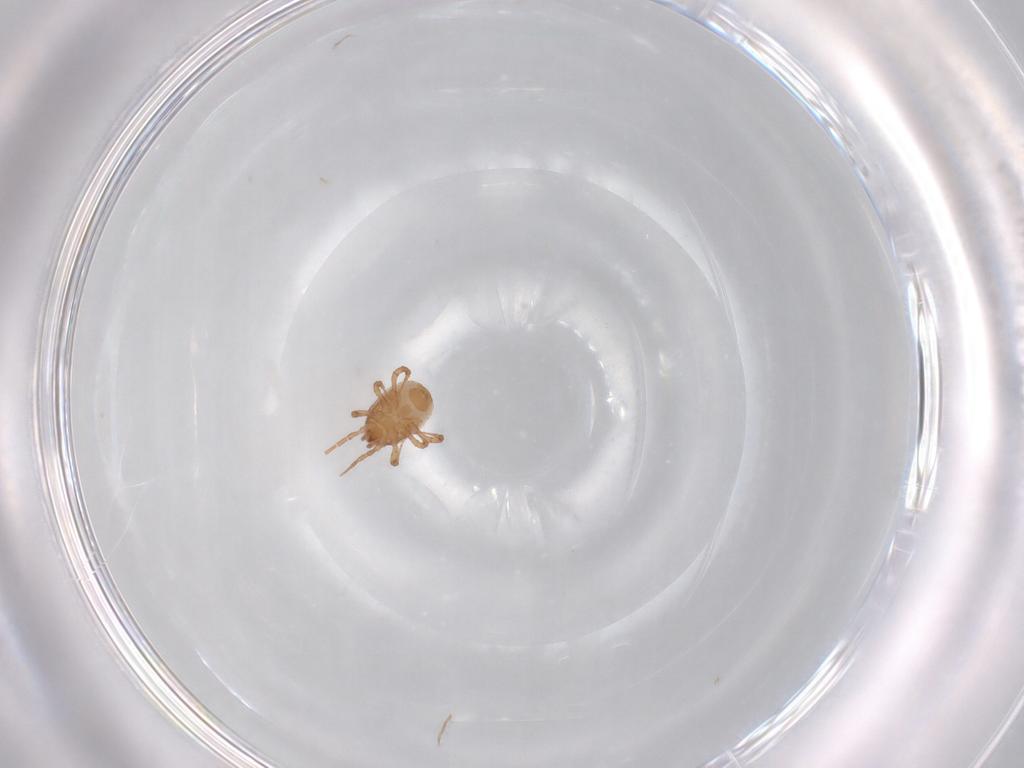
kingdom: Animalia
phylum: Arthropoda
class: Arachnida
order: Mesostigmata
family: Blattisociidae
